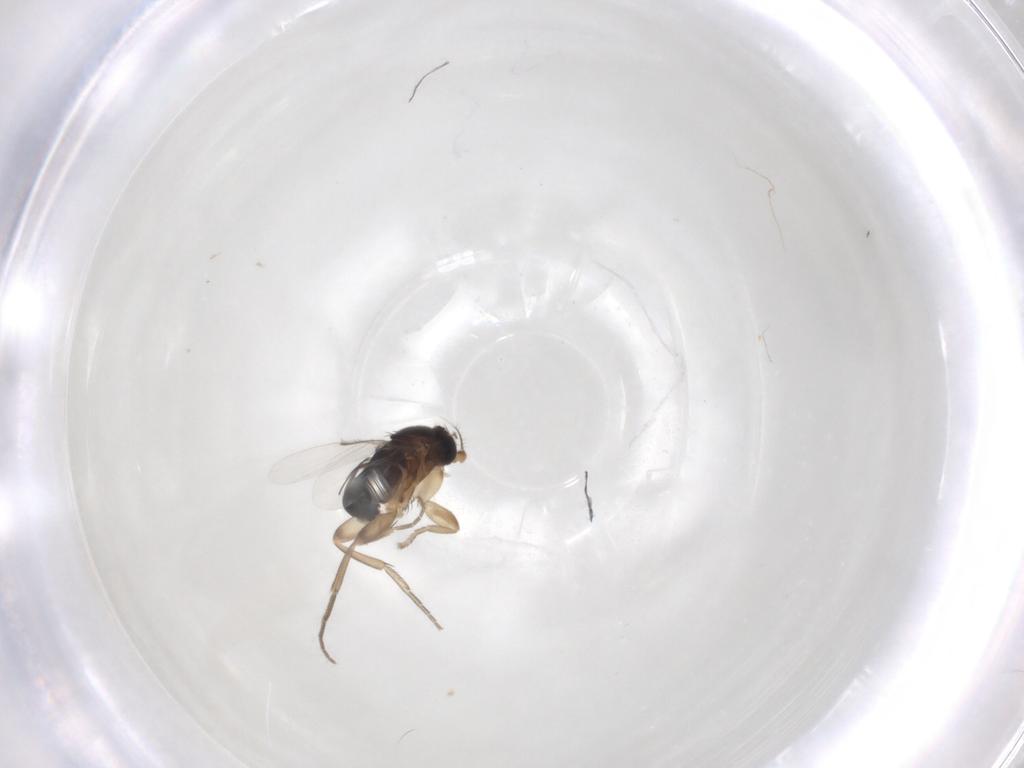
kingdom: Animalia
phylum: Arthropoda
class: Insecta
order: Diptera
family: Phoridae
